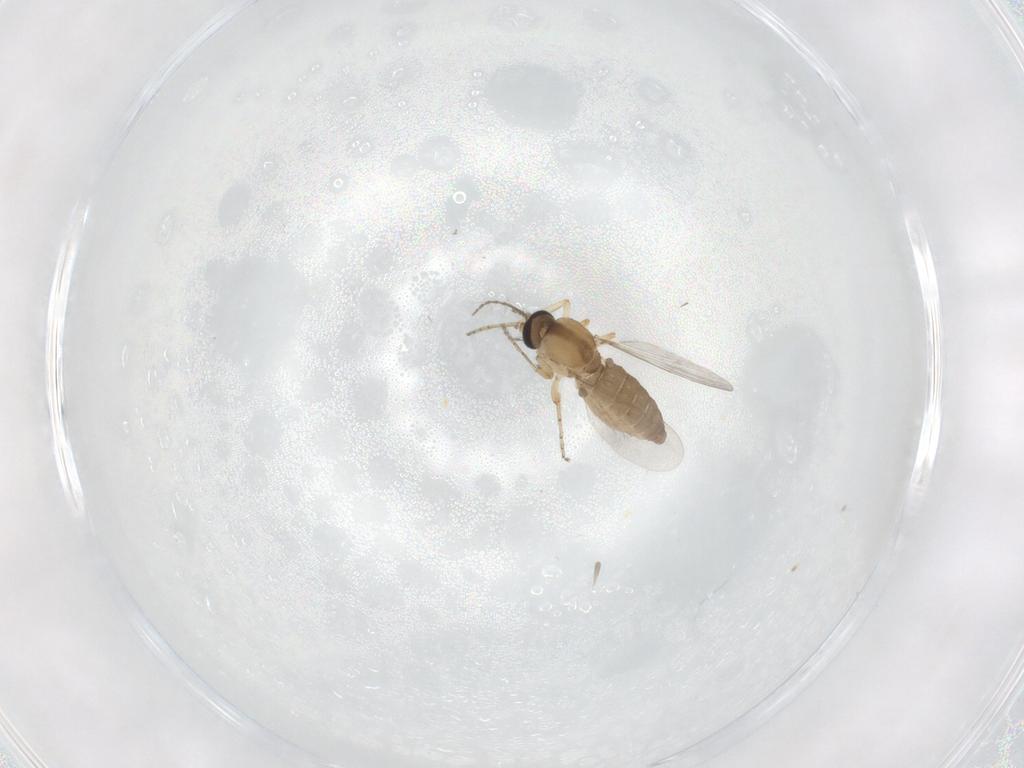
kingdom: Animalia
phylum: Arthropoda
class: Insecta
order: Diptera
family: Ceratopogonidae
